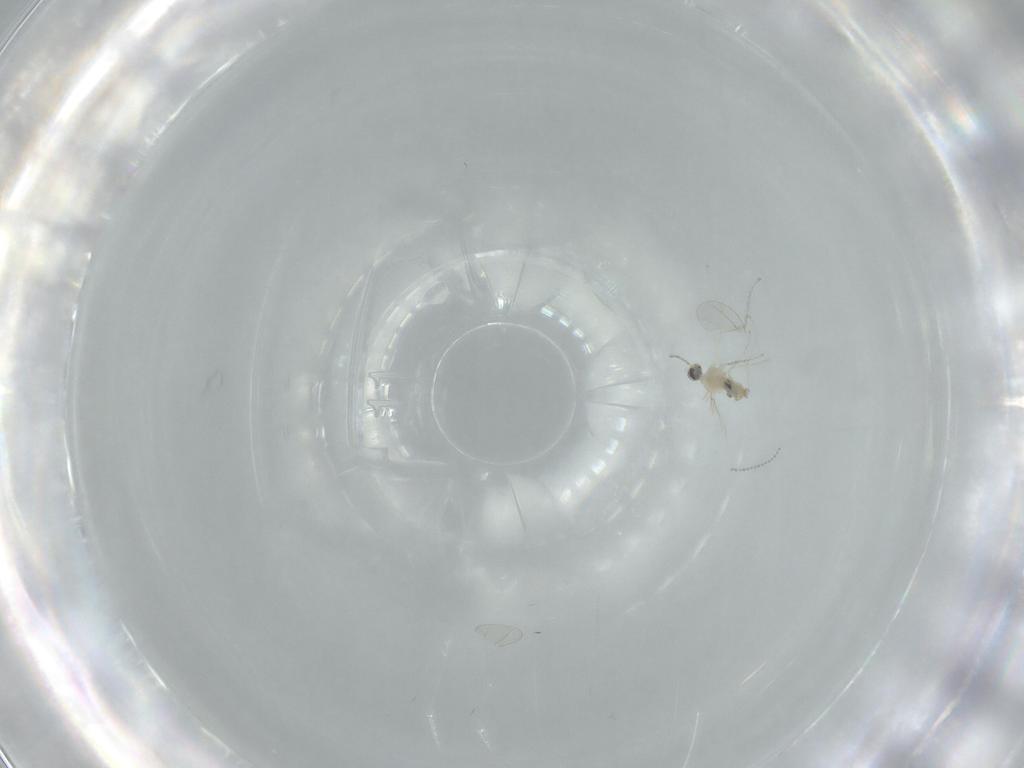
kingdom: Animalia
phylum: Arthropoda
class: Insecta
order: Diptera
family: Cecidomyiidae
